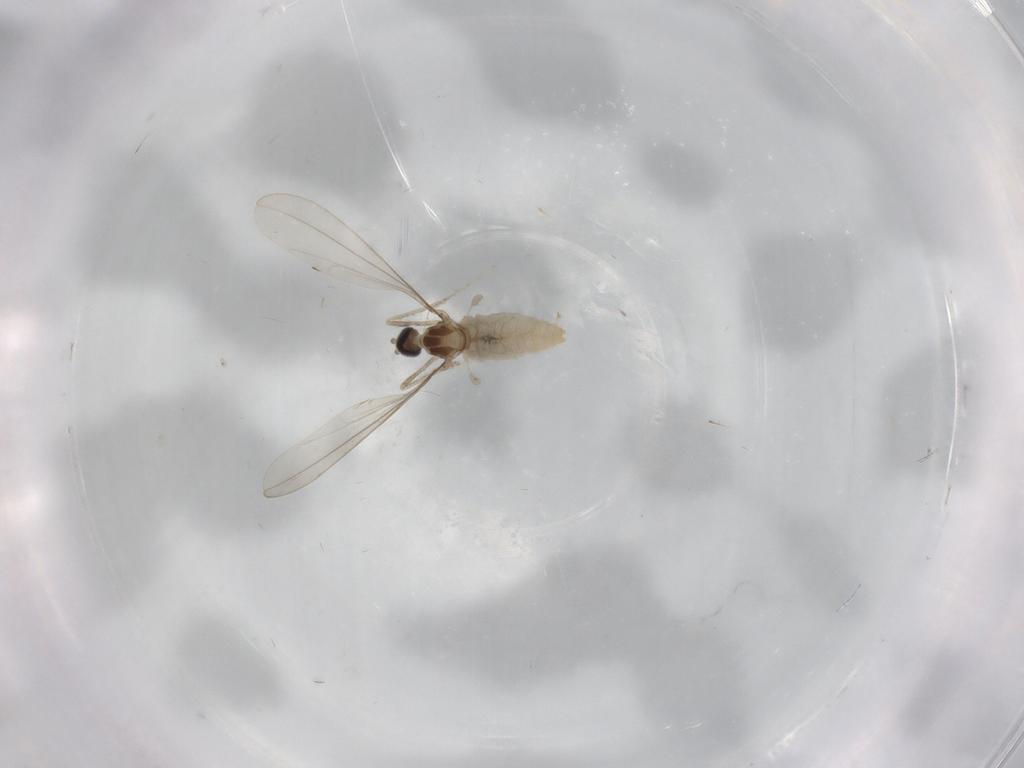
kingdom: Animalia
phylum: Arthropoda
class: Insecta
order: Diptera
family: Cecidomyiidae
